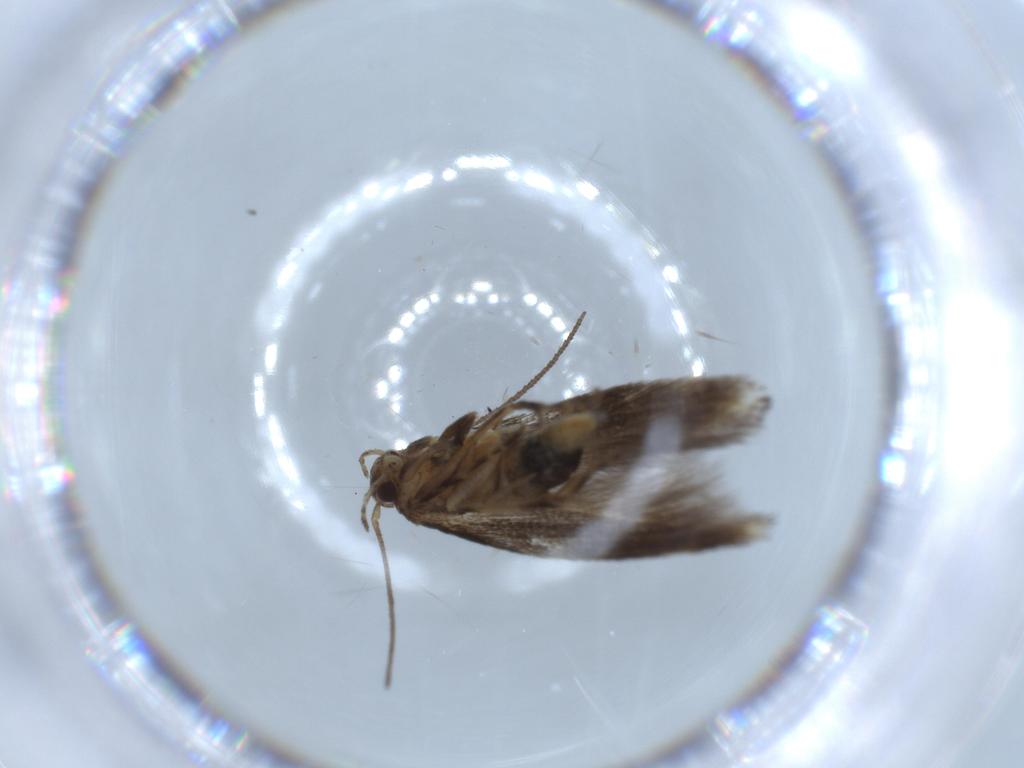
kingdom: Animalia
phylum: Arthropoda
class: Insecta
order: Lepidoptera
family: Elachistidae
